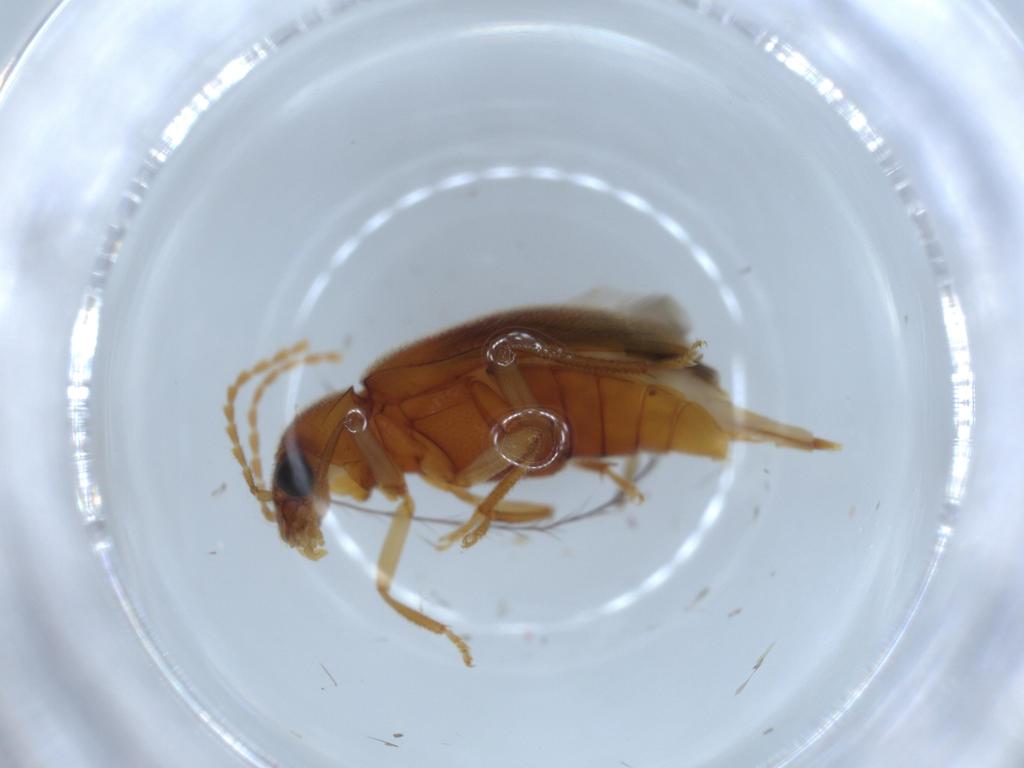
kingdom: Animalia
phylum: Arthropoda
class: Insecta
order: Coleoptera
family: Ptilodactylidae
